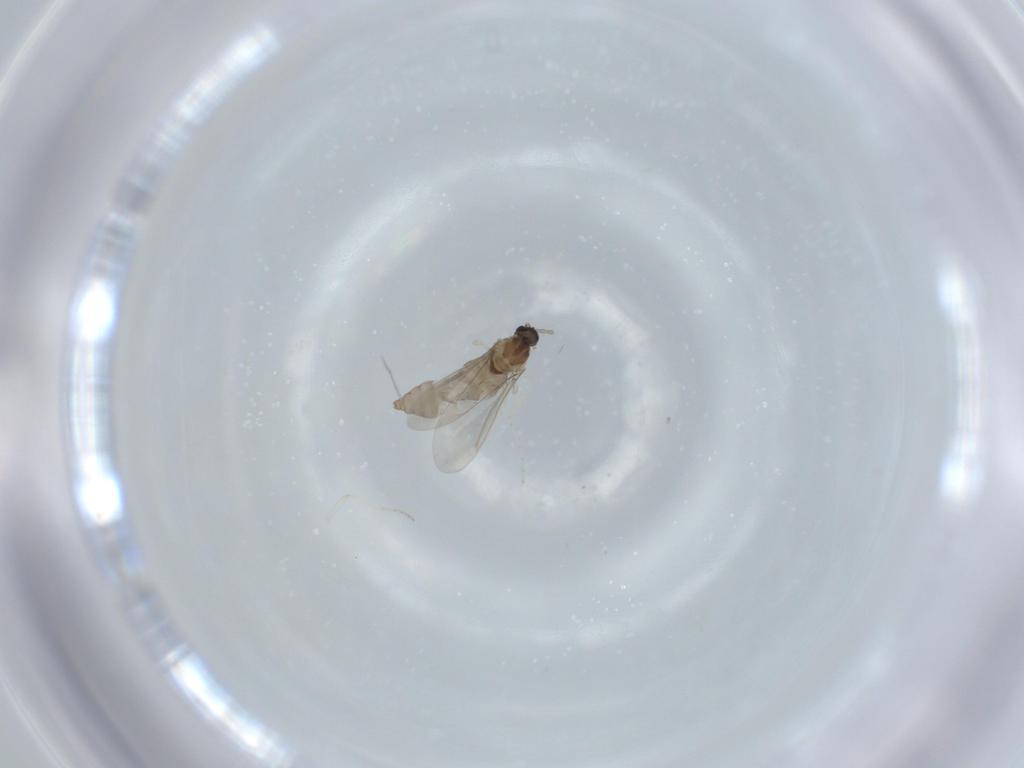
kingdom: Animalia
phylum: Arthropoda
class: Insecta
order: Diptera
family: Cecidomyiidae
